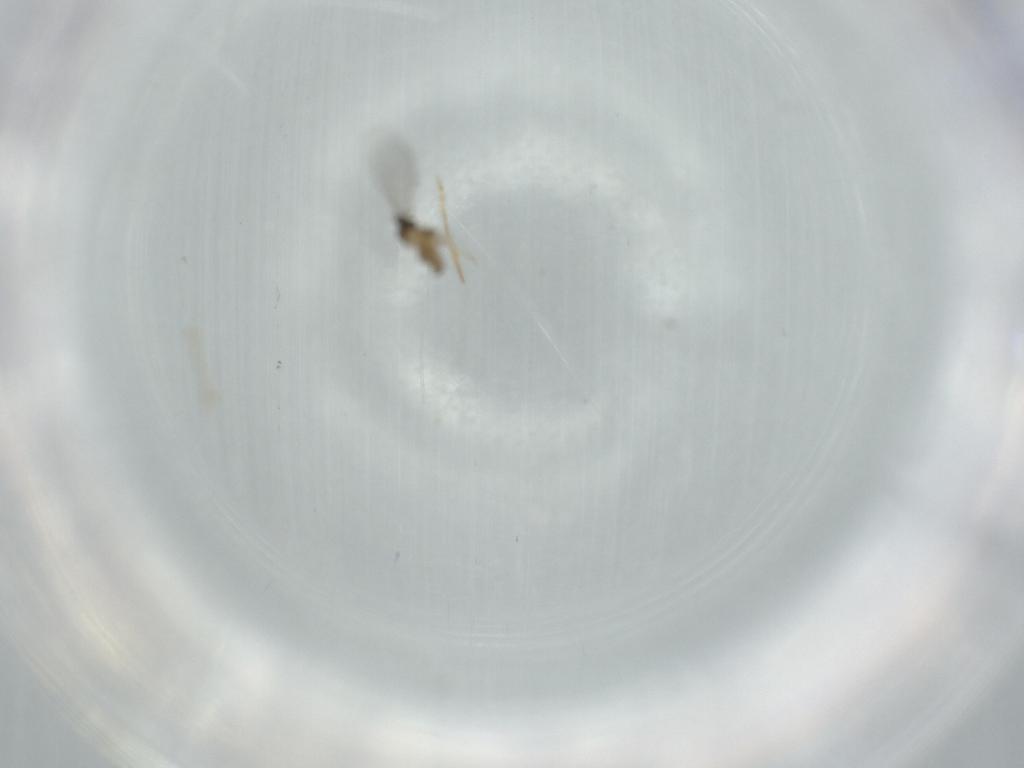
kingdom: Animalia
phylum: Arthropoda
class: Insecta
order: Diptera
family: Cecidomyiidae
